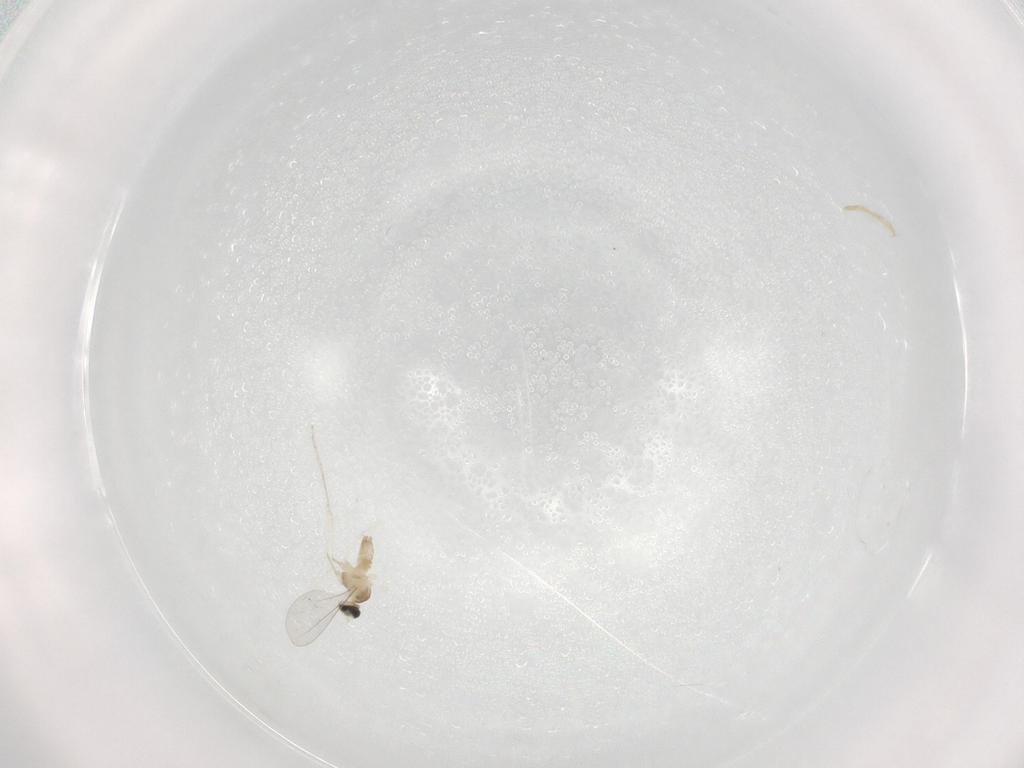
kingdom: Animalia
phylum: Arthropoda
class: Insecta
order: Diptera
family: Cecidomyiidae
